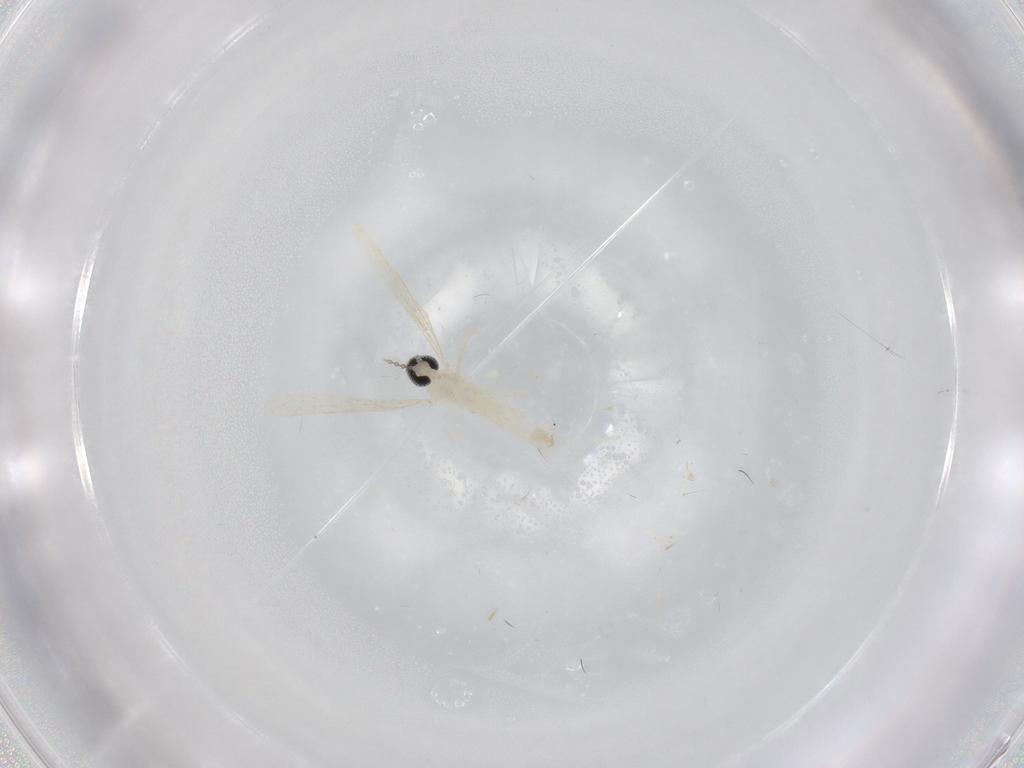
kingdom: Animalia
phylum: Arthropoda
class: Insecta
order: Diptera
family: Cecidomyiidae
